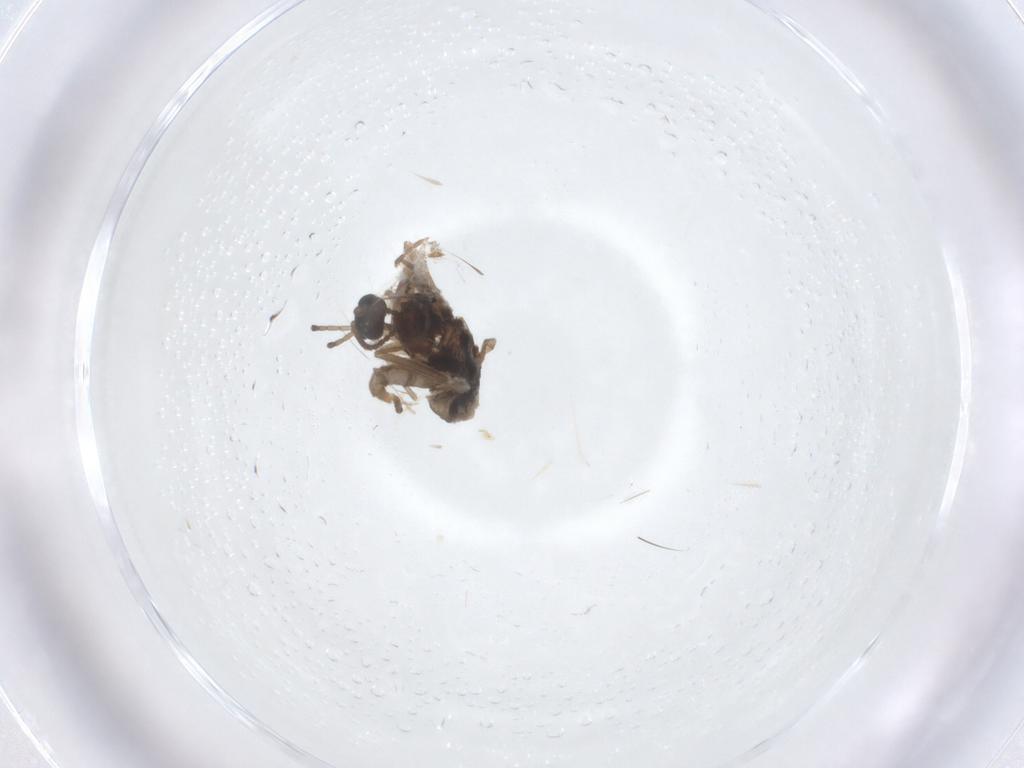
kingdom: Animalia
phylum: Arthropoda
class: Insecta
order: Diptera
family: Cecidomyiidae
